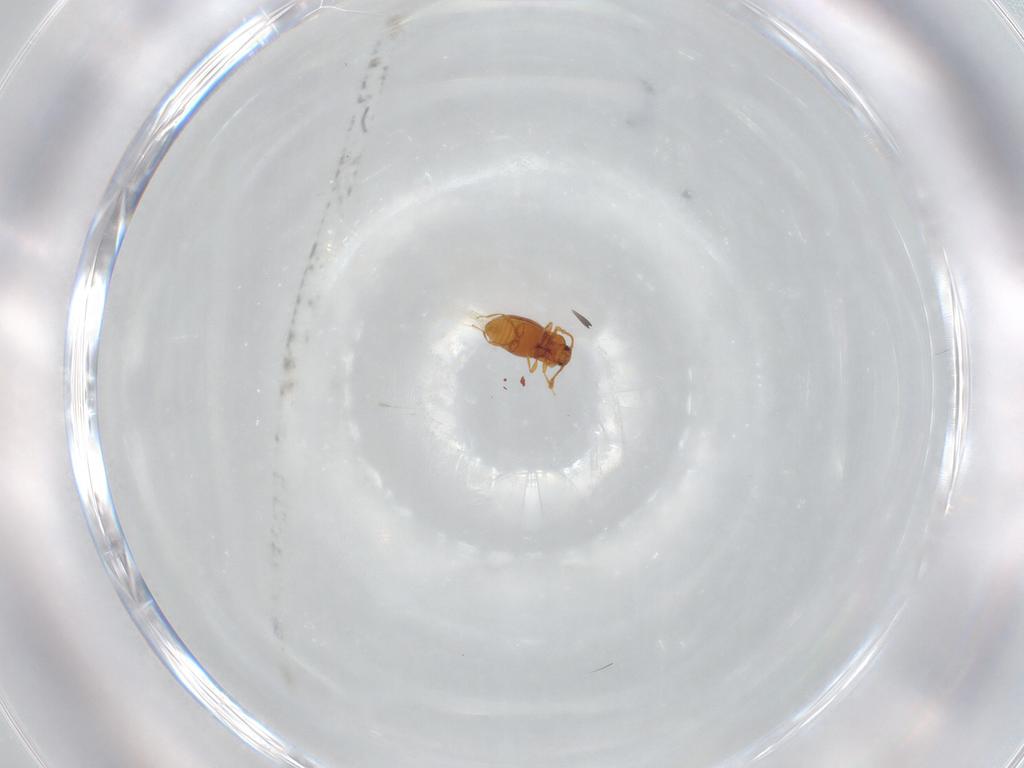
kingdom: Animalia
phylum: Arthropoda
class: Insecta
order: Coleoptera
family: Staphylinidae
